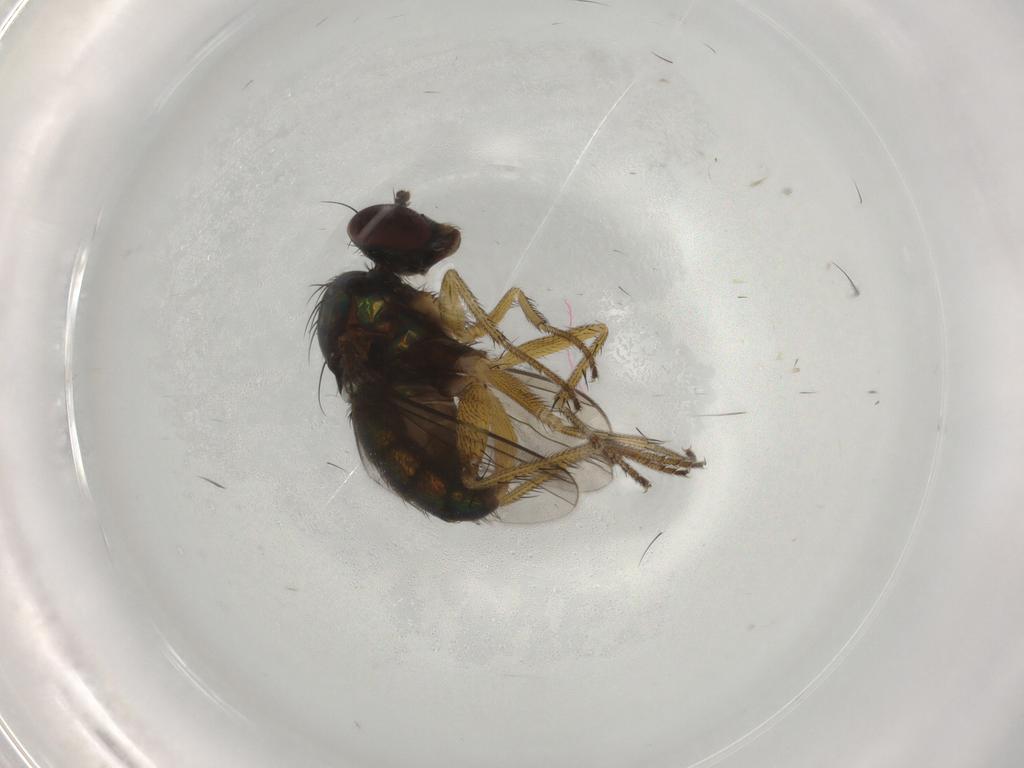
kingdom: Animalia
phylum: Arthropoda
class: Insecta
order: Diptera
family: Dolichopodidae
